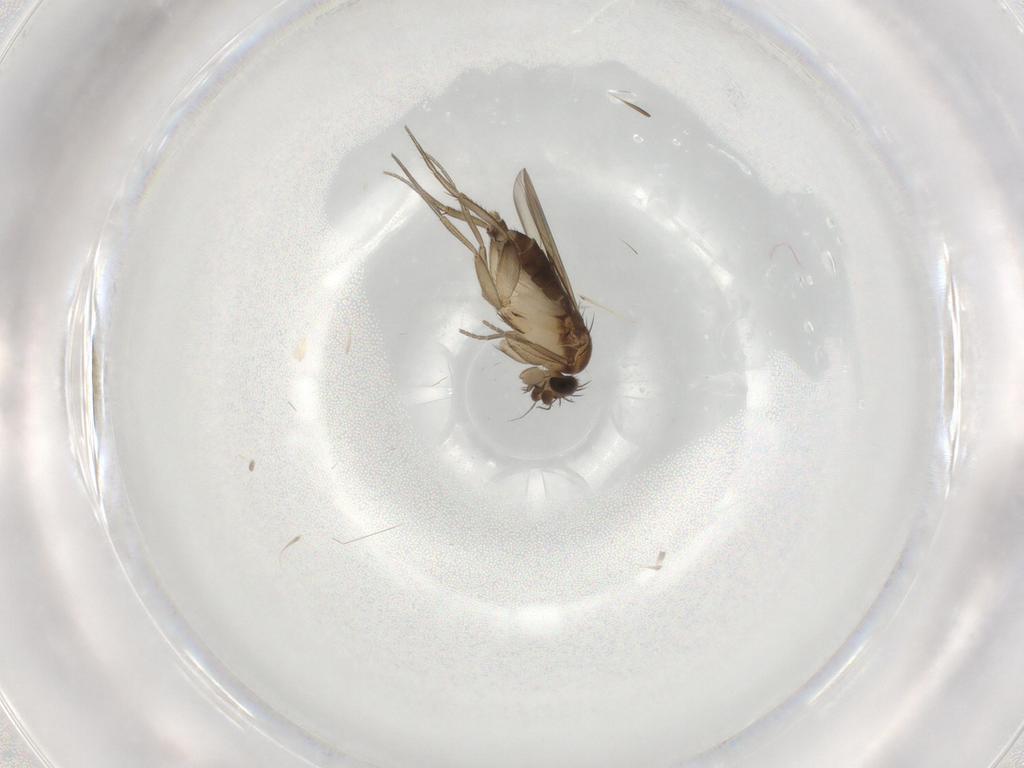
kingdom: Animalia
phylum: Arthropoda
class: Insecta
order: Diptera
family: Phoridae
